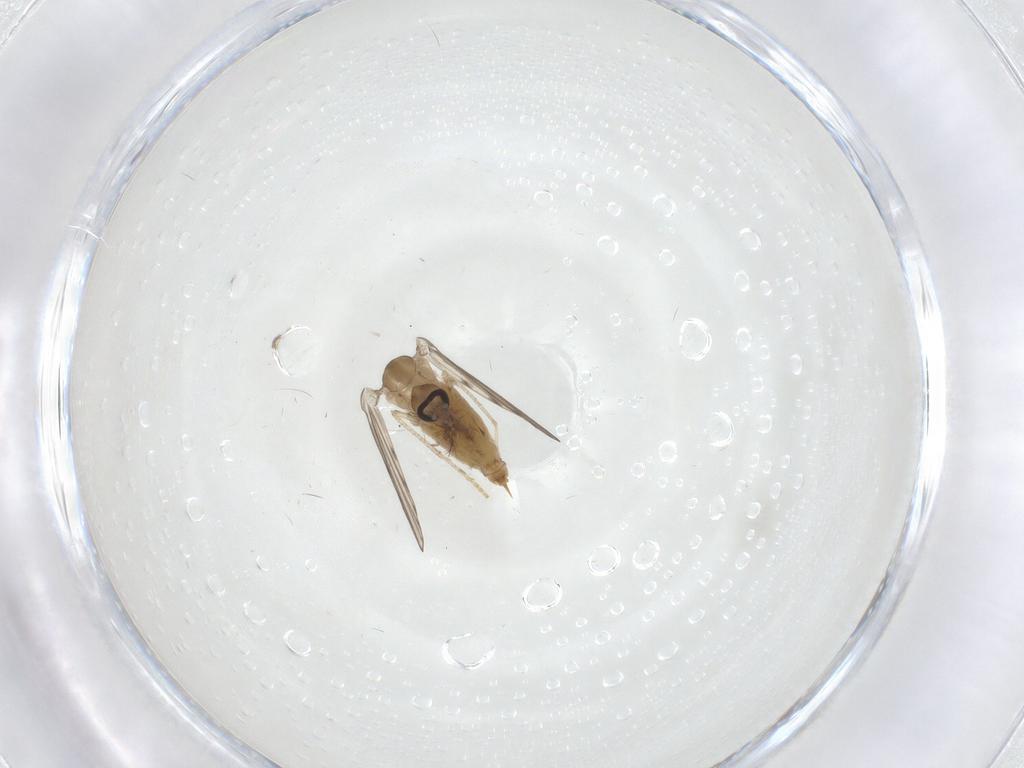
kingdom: Animalia
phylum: Arthropoda
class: Insecta
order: Diptera
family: Psychodidae
